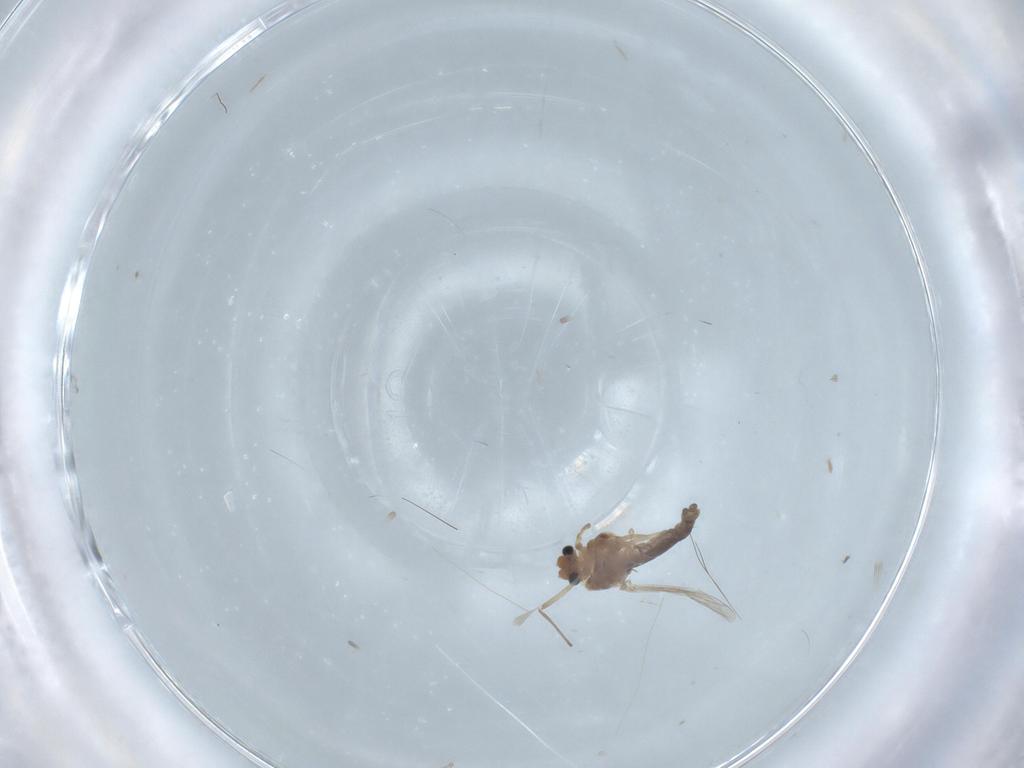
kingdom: Animalia
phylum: Arthropoda
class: Insecta
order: Diptera
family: Chironomidae
